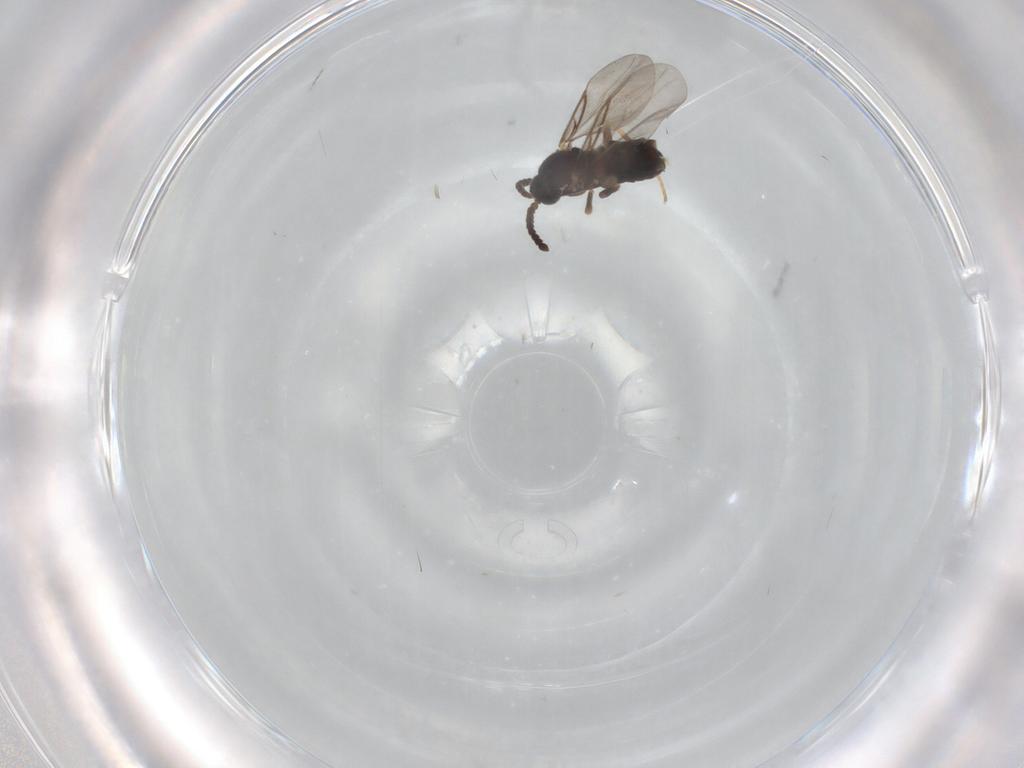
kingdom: Animalia
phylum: Arthropoda
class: Insecta
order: Diptera
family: Scatopsidae
